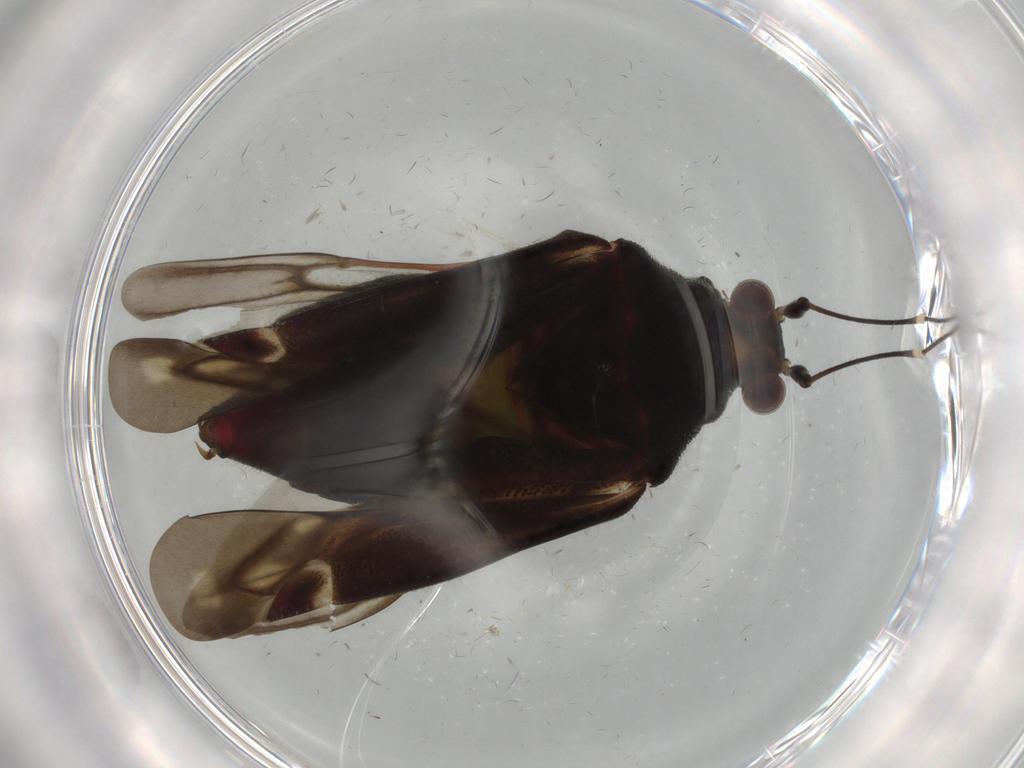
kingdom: Animalia
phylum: Arthropoda
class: Insecta
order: Hemiptera
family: Miridae
